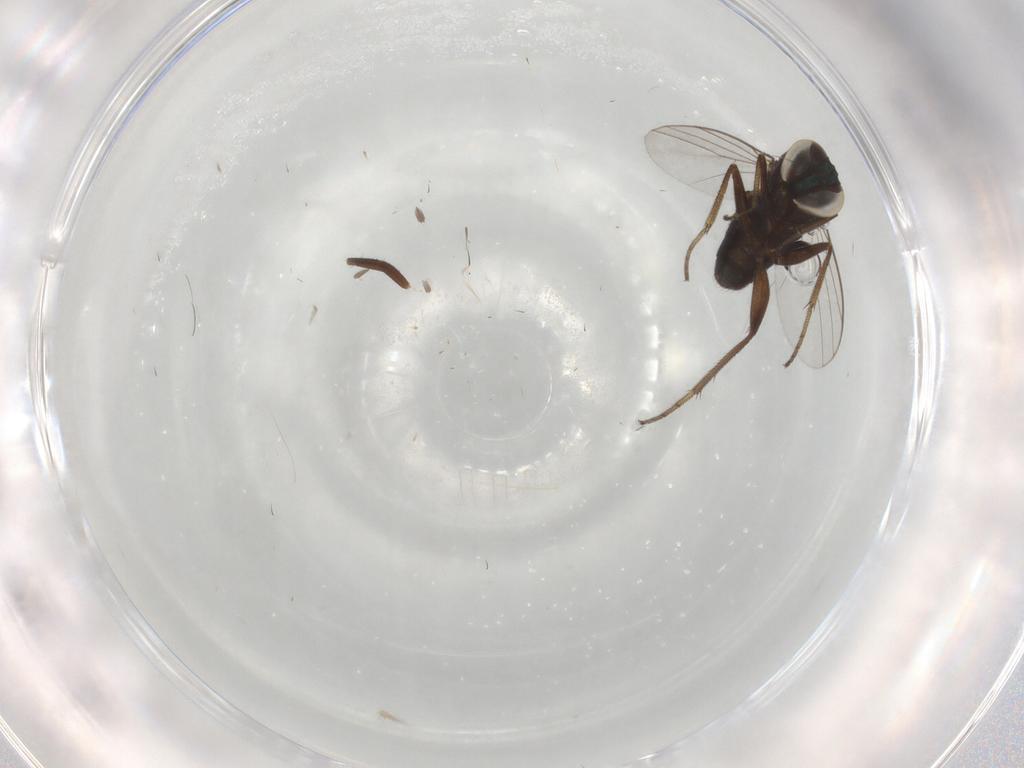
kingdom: Animalia
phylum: Arthropoda
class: Insecta
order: Diptera
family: Dolichopodidae
